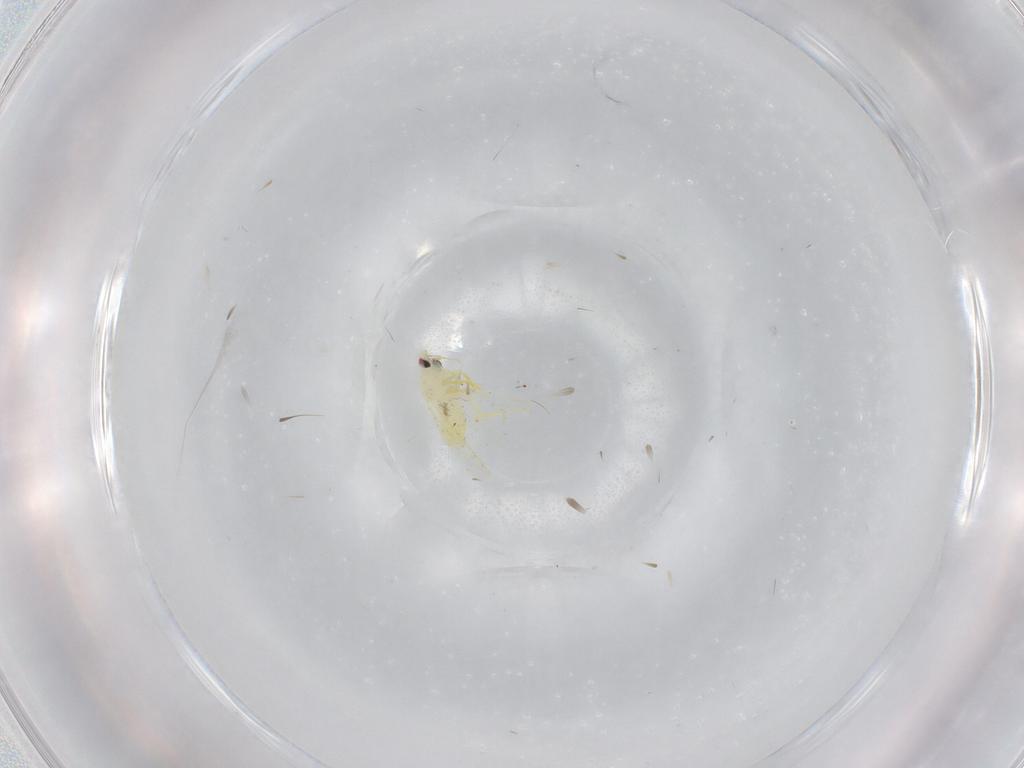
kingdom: Animalia
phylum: Arthropoda
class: Insecta
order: Hemiptera
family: Aleyrodidae
